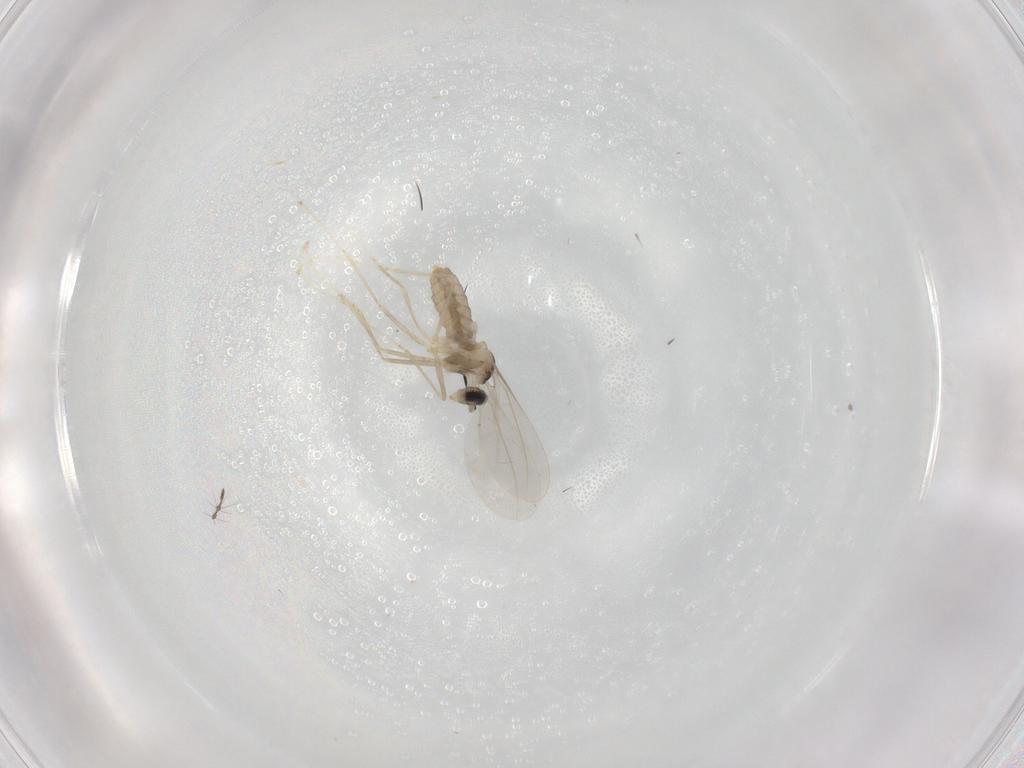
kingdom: Animalia
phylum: Arthropoda
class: Insecta
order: Diptera
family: Cecidomyiidae
